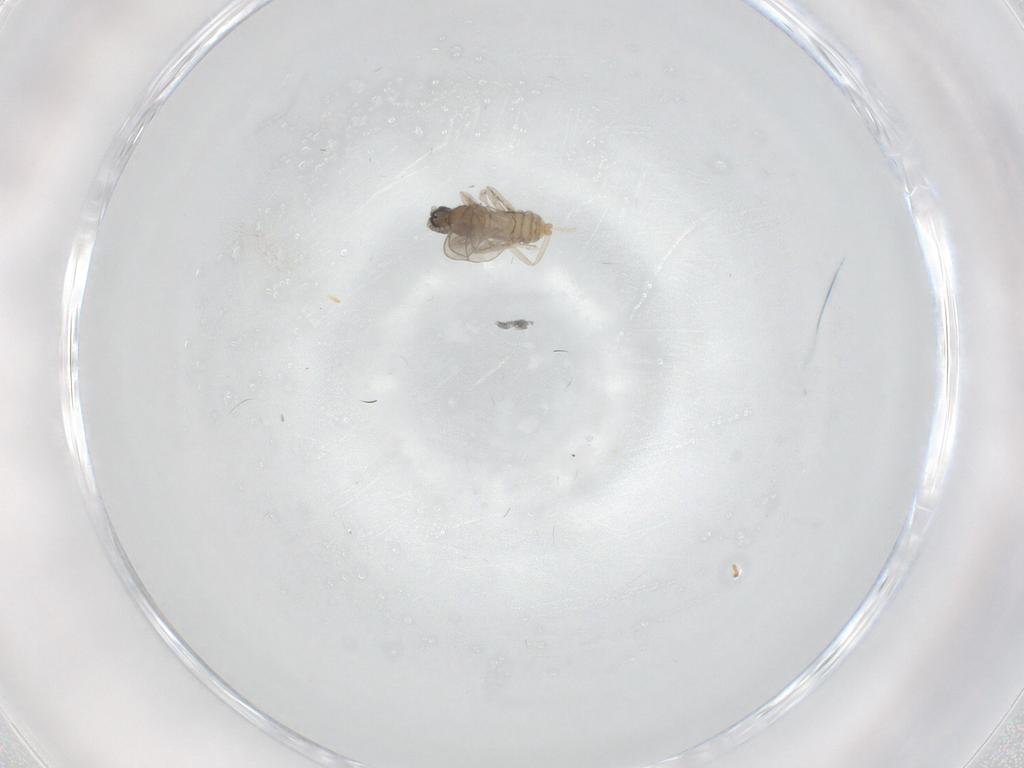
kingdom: Animalia
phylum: Arthropoda
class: Insecta
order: Diptera
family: Cecidomyiidae
